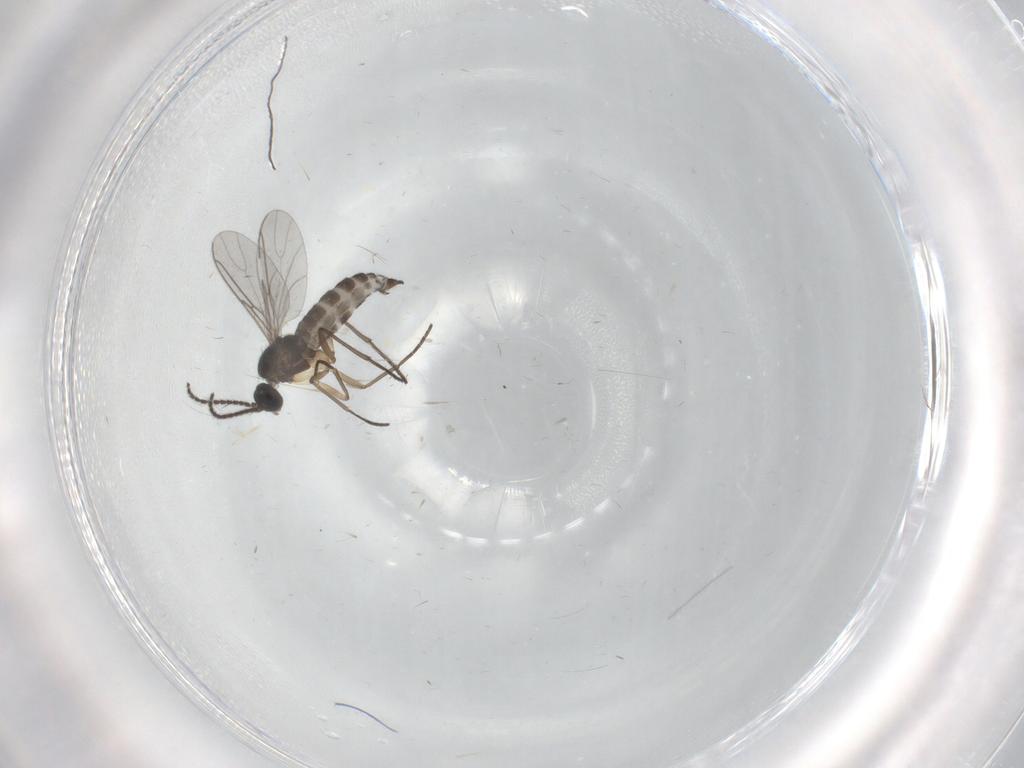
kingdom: Animalia
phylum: Arthropoda
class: Insecta
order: Diptera
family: Sciaridae
